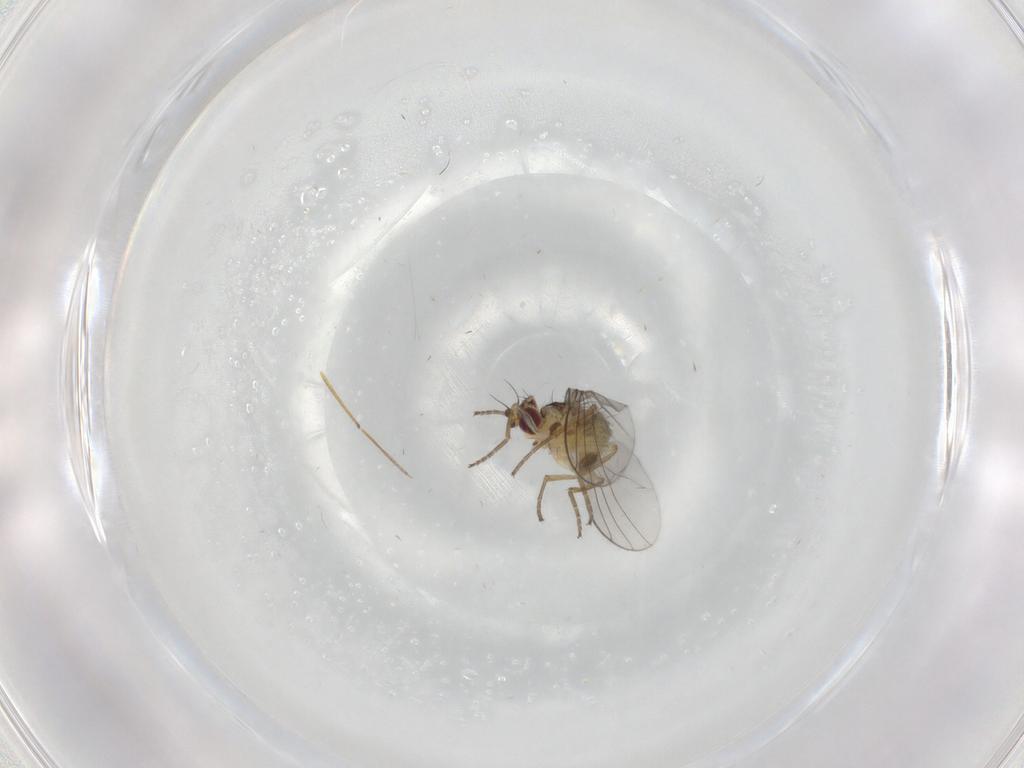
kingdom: Animalia
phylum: Arthropoda
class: Insecta
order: Diptera
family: Agromyzidae
